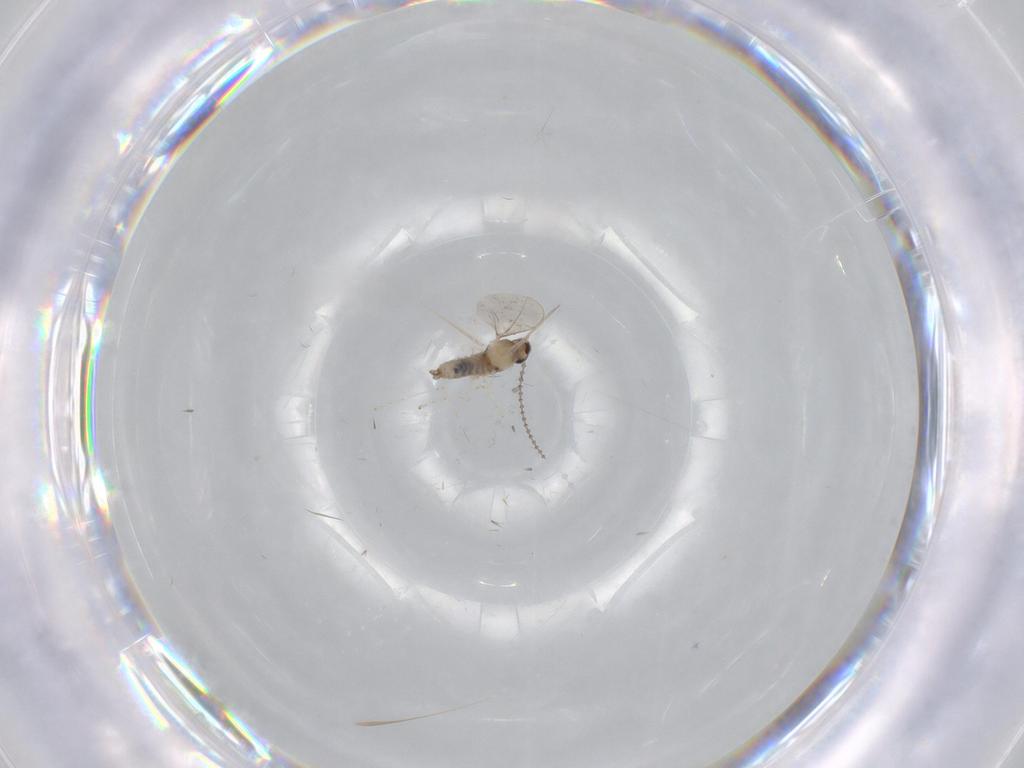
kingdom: Animalia
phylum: Arthropoda
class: Insecta
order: Diptera
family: Cecidomyiidae
